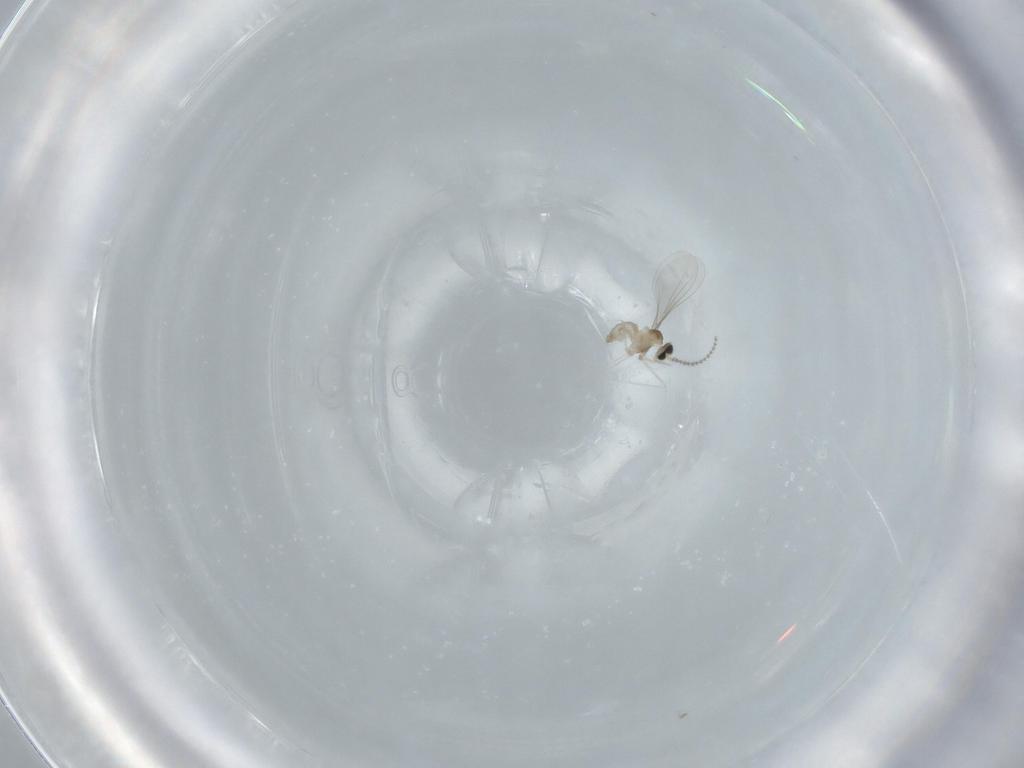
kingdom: Animalia
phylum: Arthropoda
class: Insecta
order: Diptera
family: Cecidomyiidae
